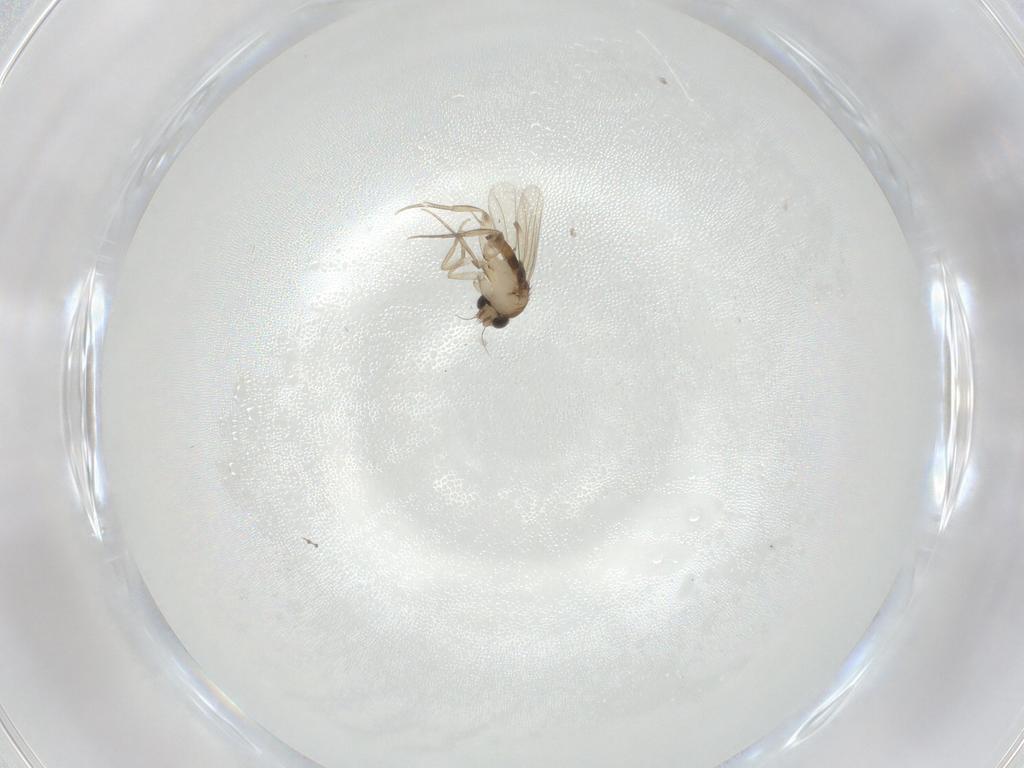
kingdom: Animalia
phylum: Arthropoda
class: Insecta
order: Diptera
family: Phoridae
